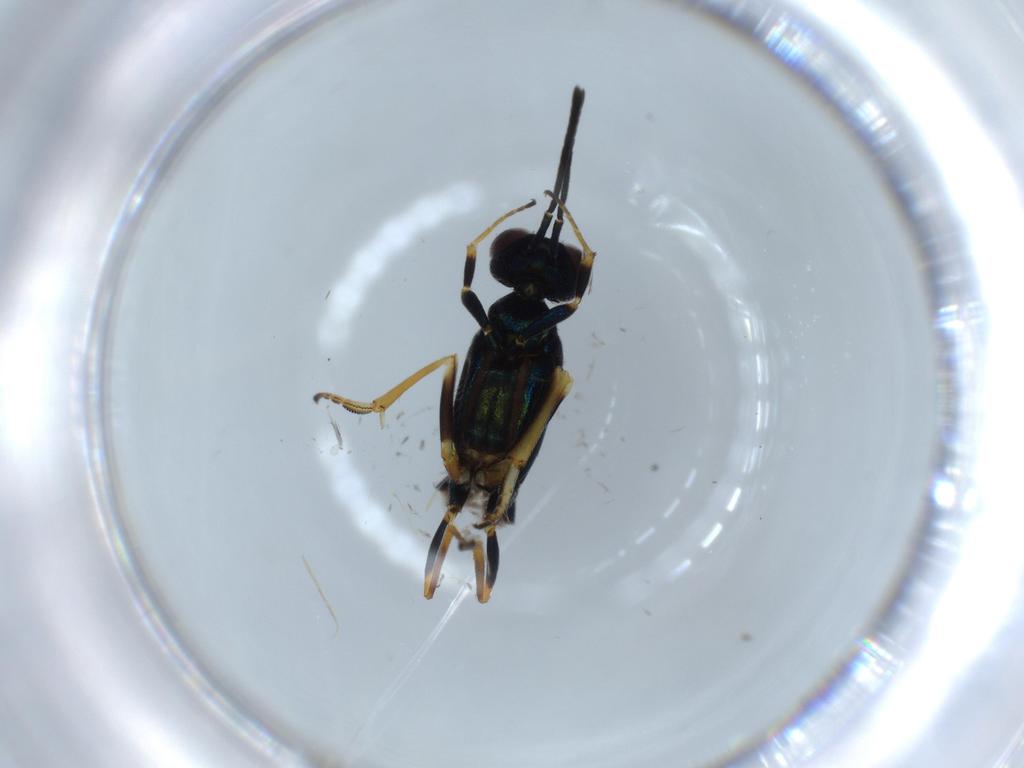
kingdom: Animalia
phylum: Arthropoda
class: Insecta
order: Hymenoptera
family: Eupelmidae
